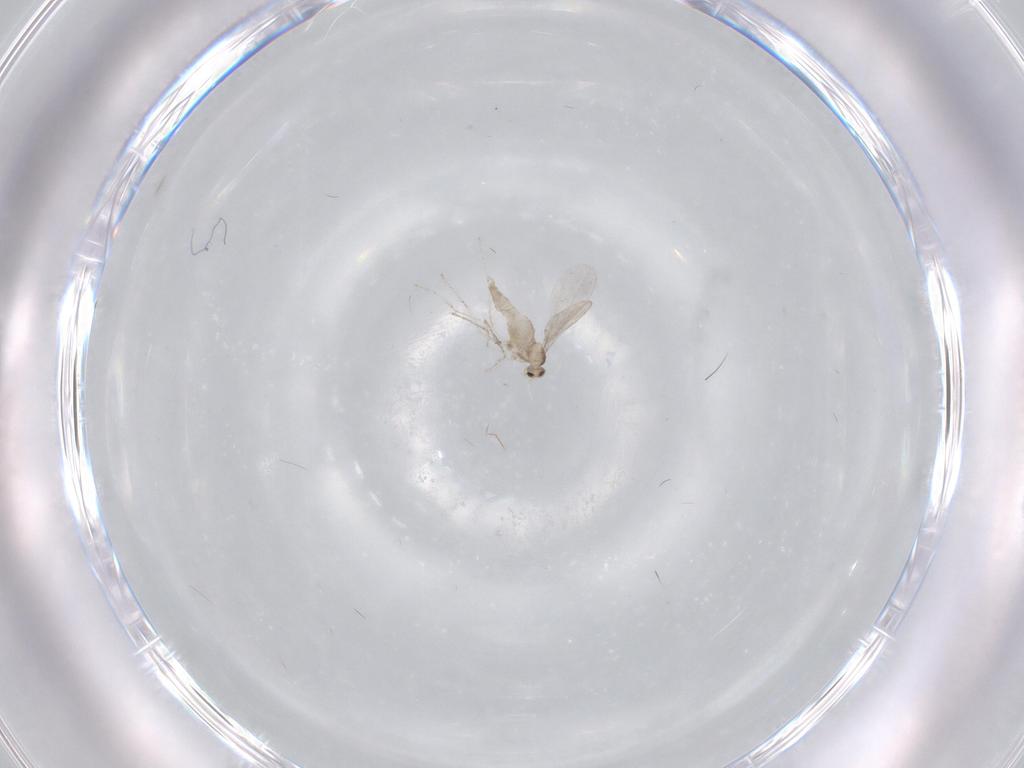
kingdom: Animalia
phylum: Arthropoda
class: Insecta
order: Diptera
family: Cecidomyiidae
